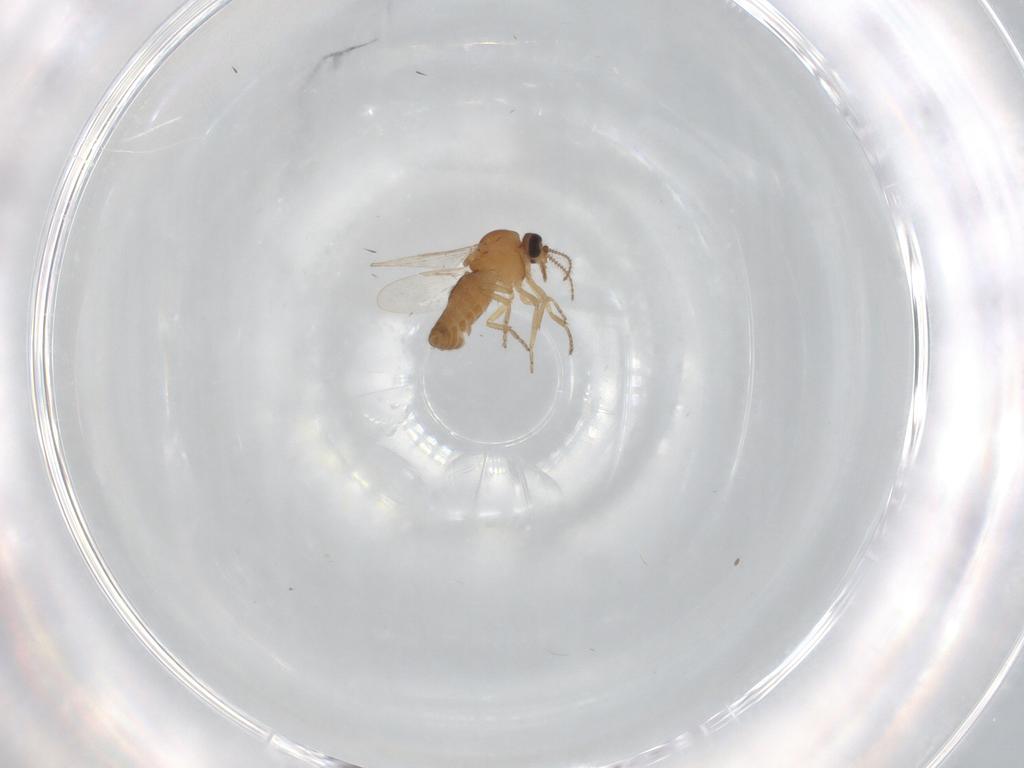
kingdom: Animalia
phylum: Arthropoda
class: Insecta
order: Diptera
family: Ceratopogonidae
